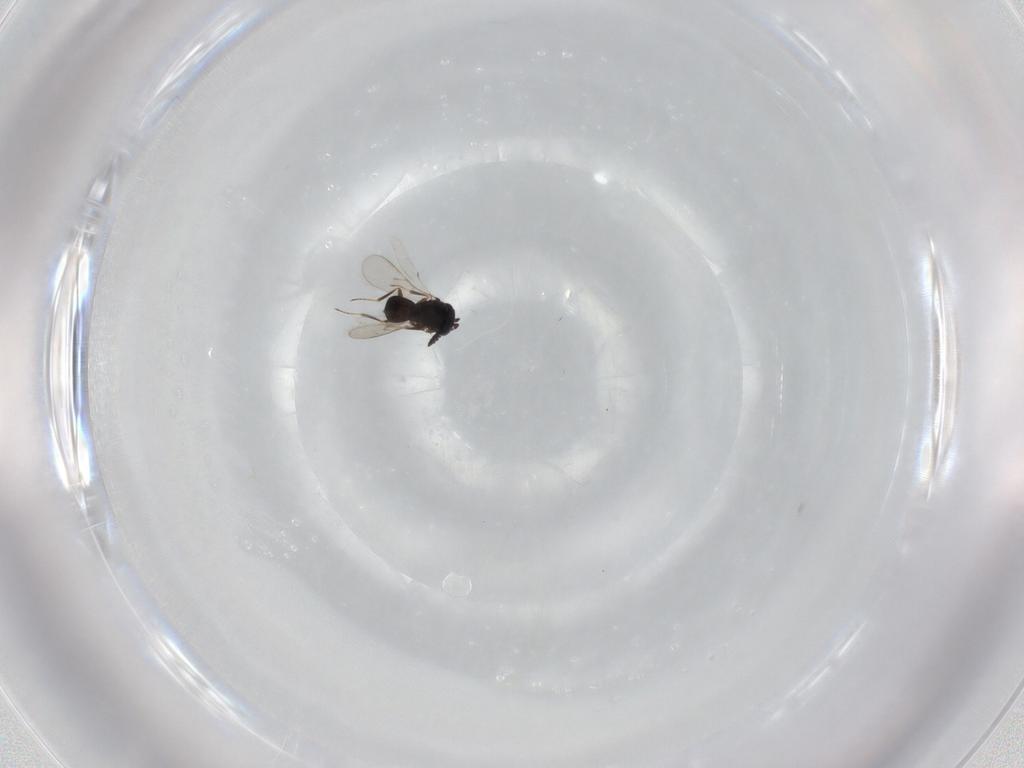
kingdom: Animalia
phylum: Arthropoda
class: Insecta
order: Hymenoptera
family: Scelionidae
